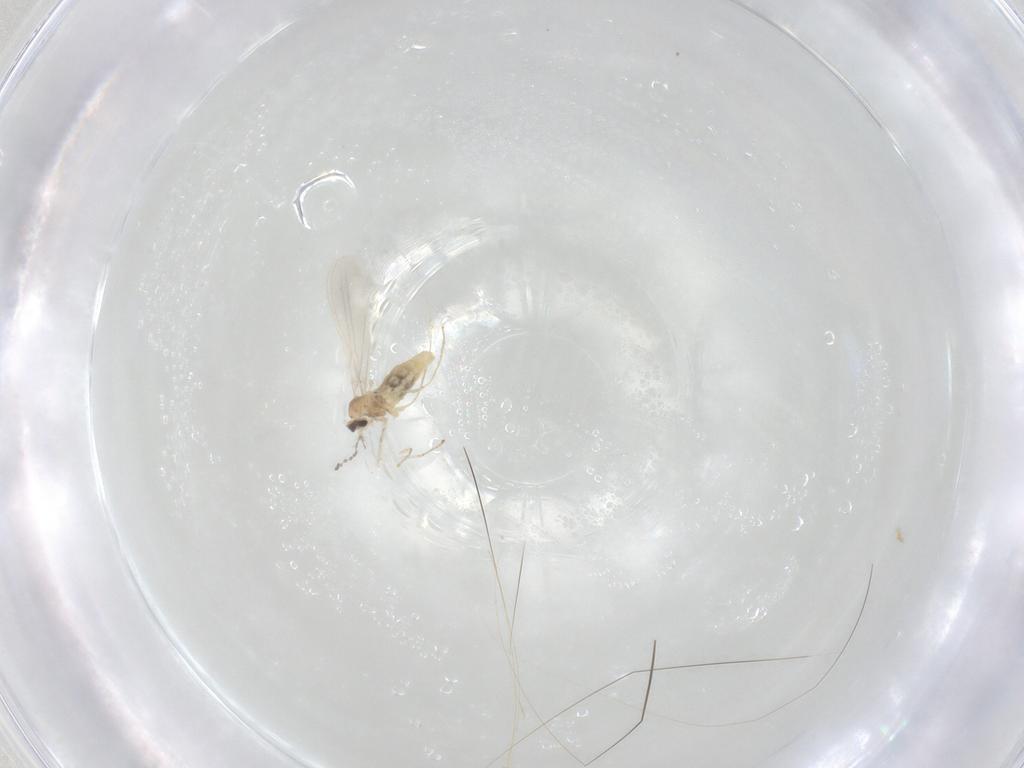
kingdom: Animalia
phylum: Arthropoda
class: Insecta
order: Diptera
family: Cecidomyiidae
